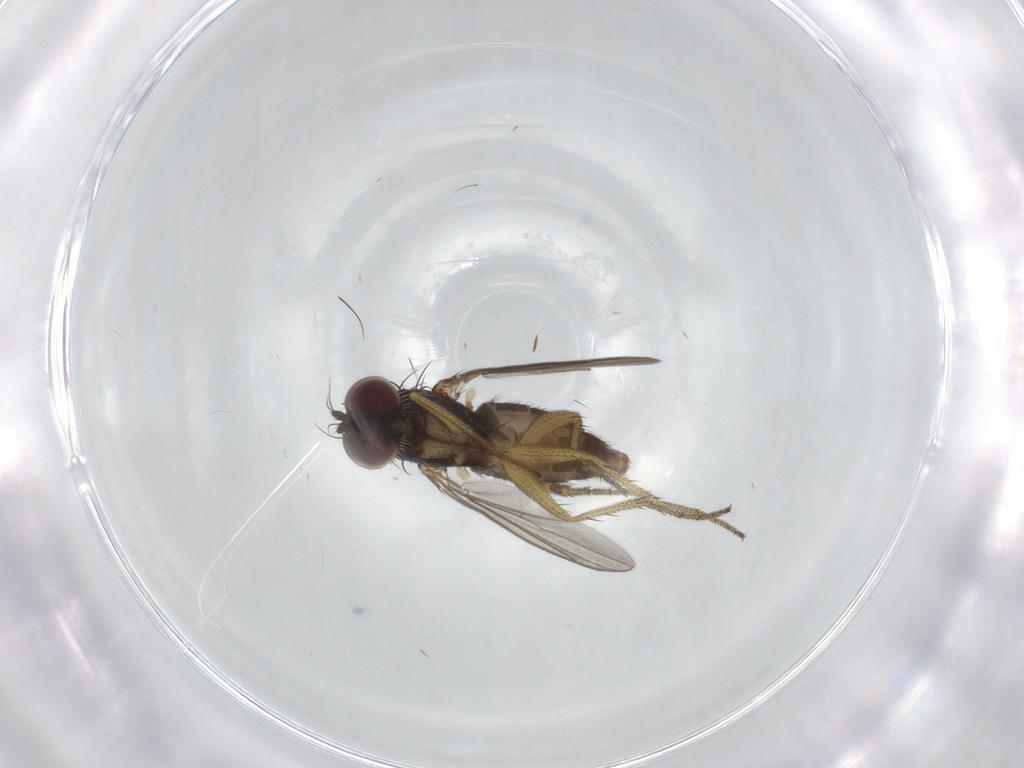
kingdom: Animalia
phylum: Arthropoda
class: Insecta
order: Diptera
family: Dolichopodidae
